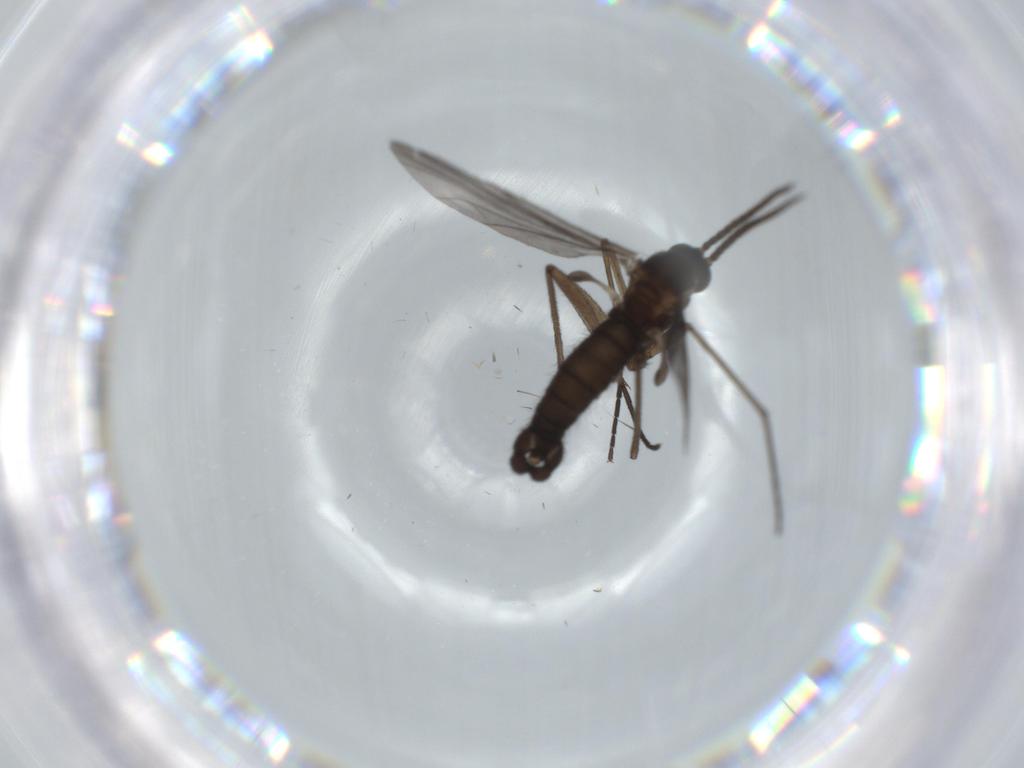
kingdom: Animalia
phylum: Arthropoda
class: Insecta
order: Diptera
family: Sciaridae
